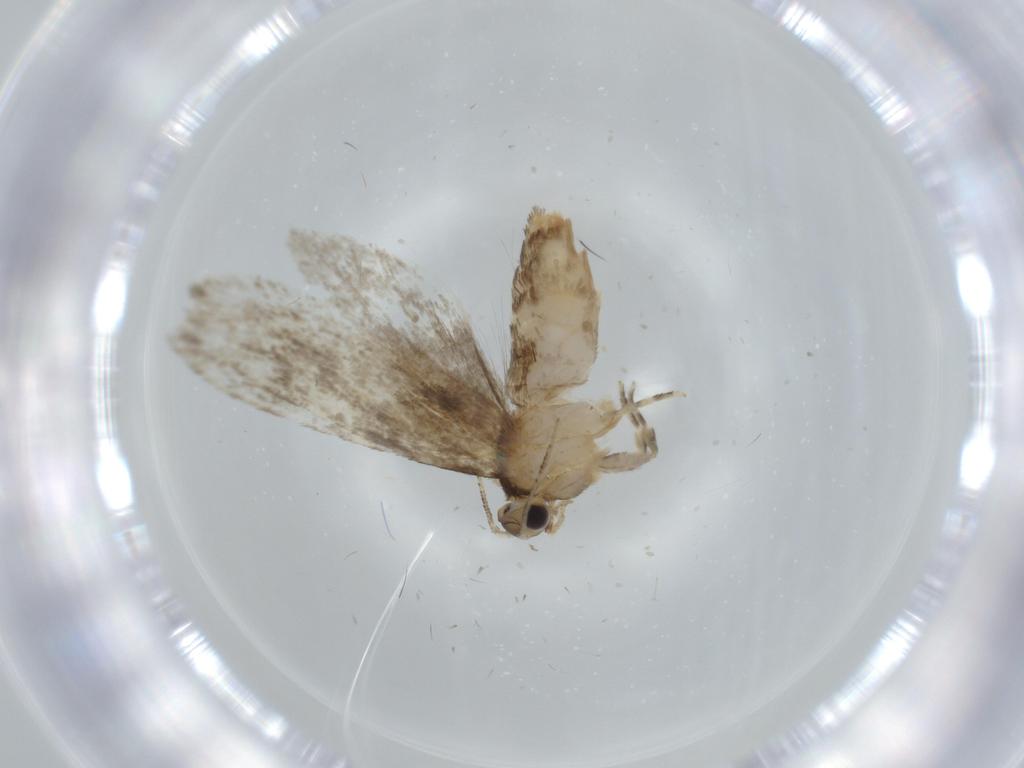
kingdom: Animalia
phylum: Arthropoda
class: Insecta
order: Lepidoptera
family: Tineidae
